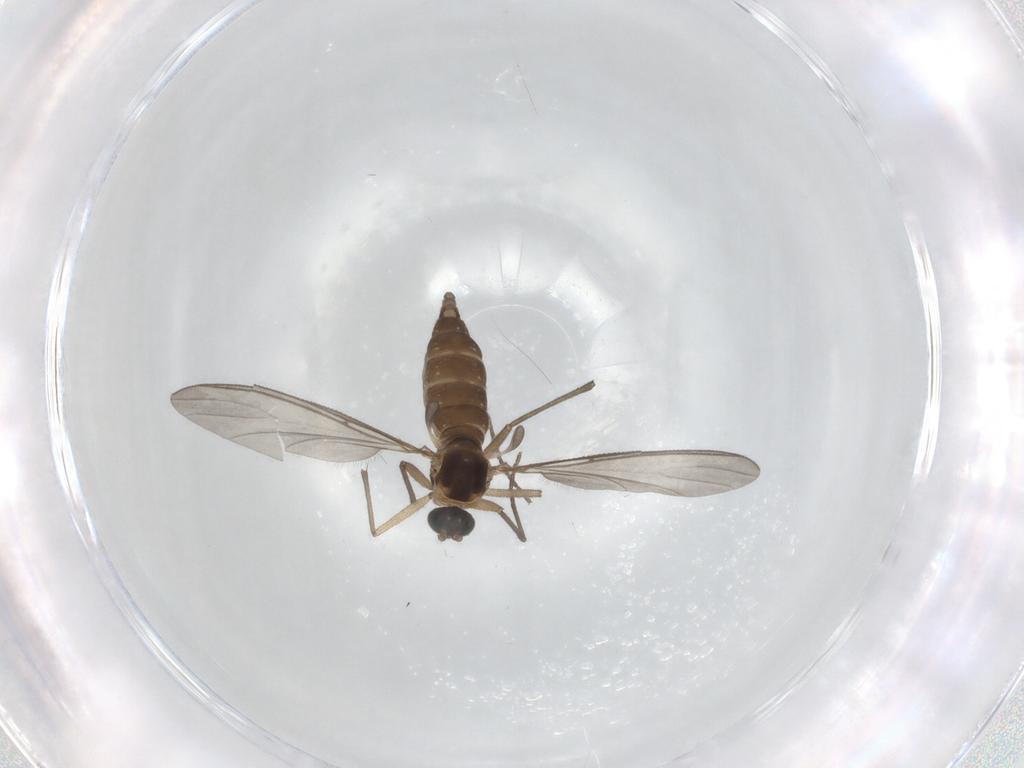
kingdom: Animalia
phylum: Arthropoda
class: Insecta
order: Diptera
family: Sciaridae
